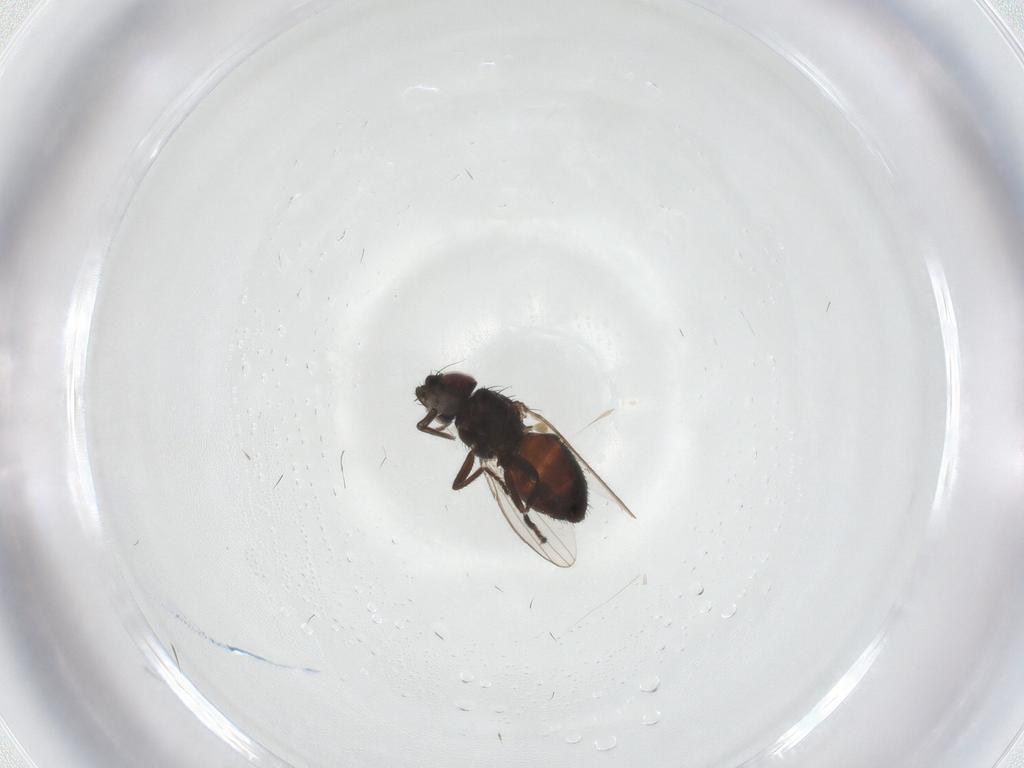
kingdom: Animalia
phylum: Arthropoda
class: Insecta
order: Diptera
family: Milichiidae
